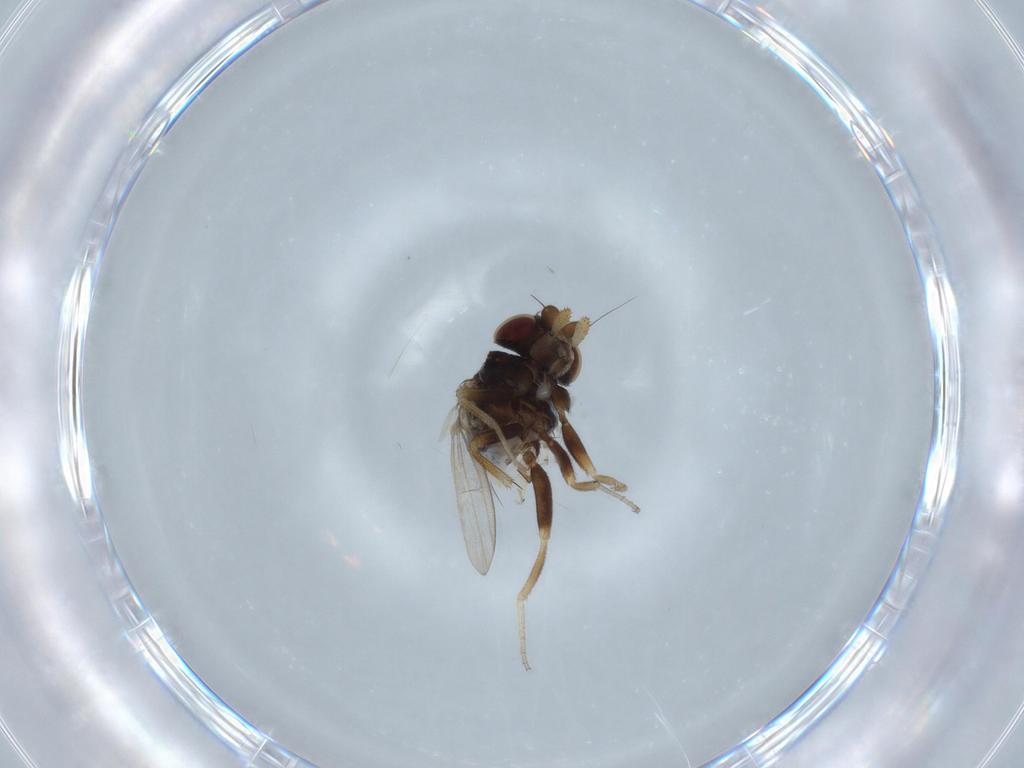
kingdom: Animalia
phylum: Arthropoda
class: Insecta
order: Diptera
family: Milichiidae
